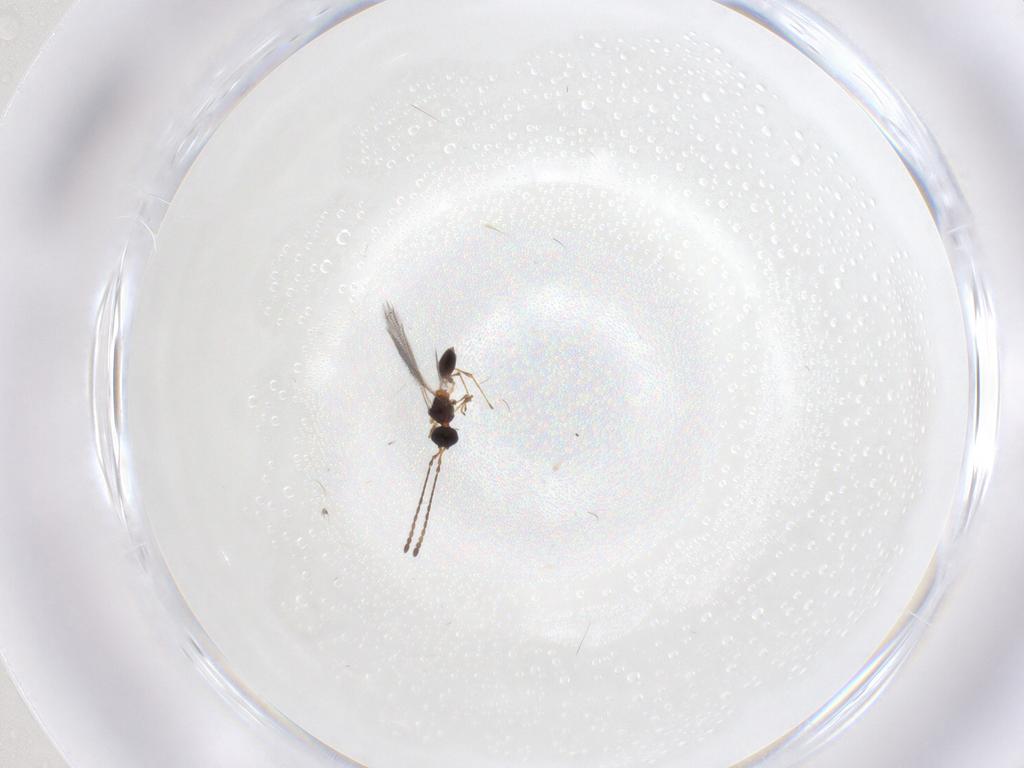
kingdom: Animalia
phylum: Arthropoda
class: Insecta
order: Hymenoptera
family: Diapriidae
